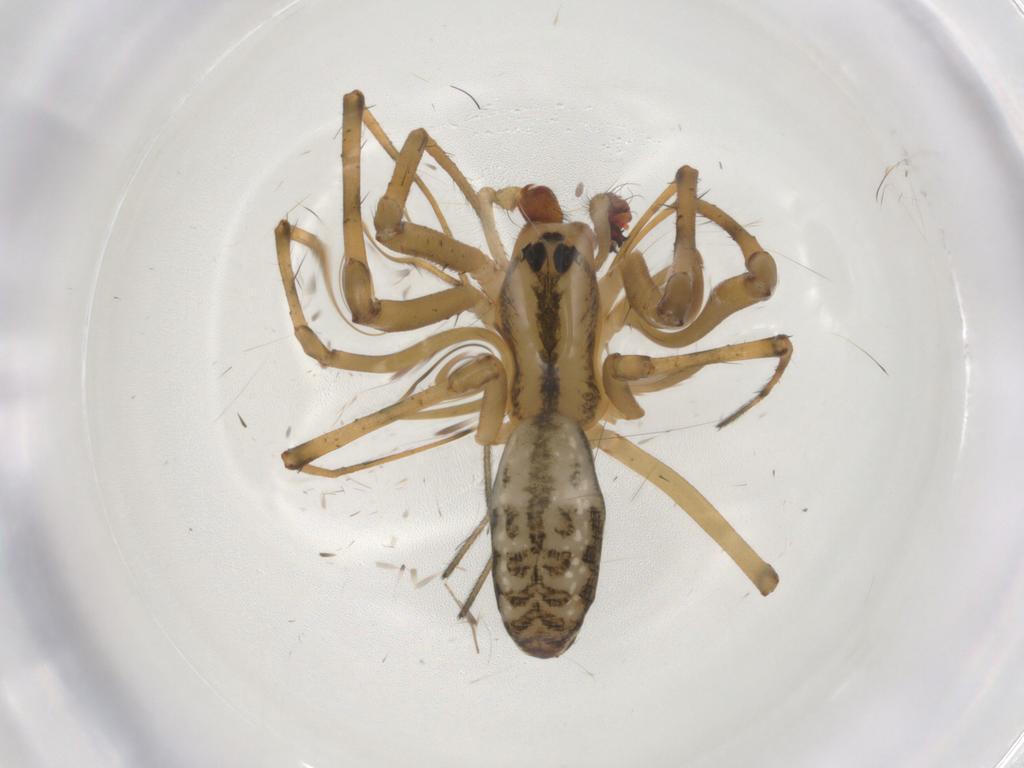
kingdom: Animalia
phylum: Arthropoda
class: Arachnida
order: Araneae
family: Linyphiidae
